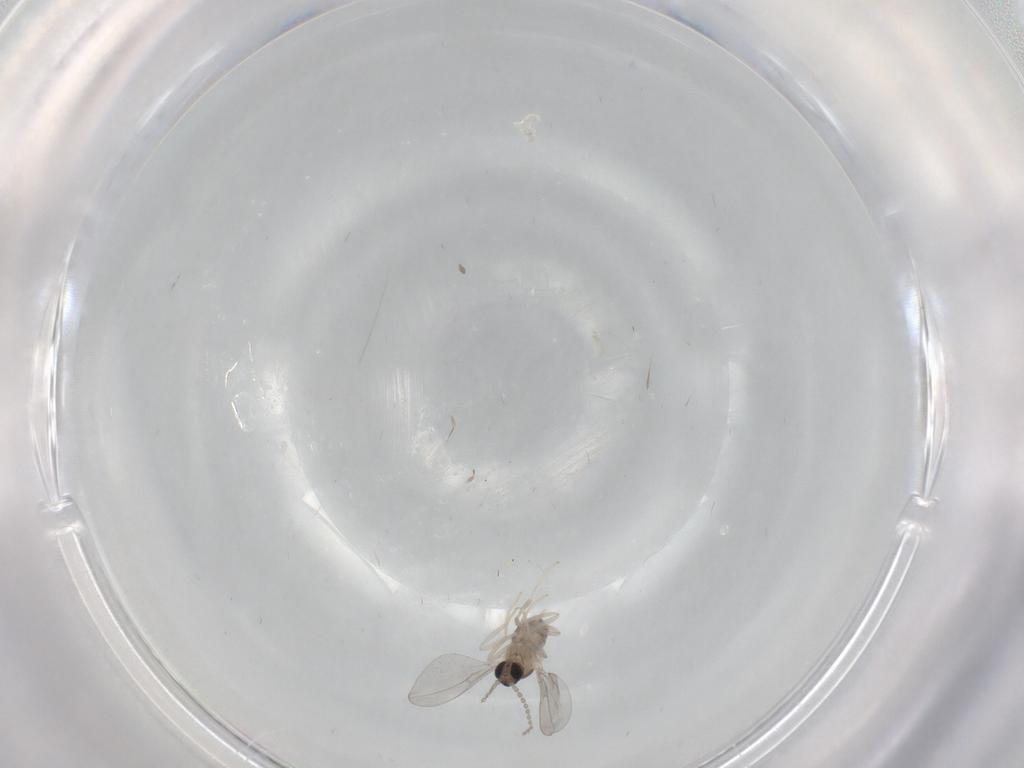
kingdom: Animalia
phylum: Arthropoda
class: Insecta
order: Diptera
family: Cecidomyiidae
